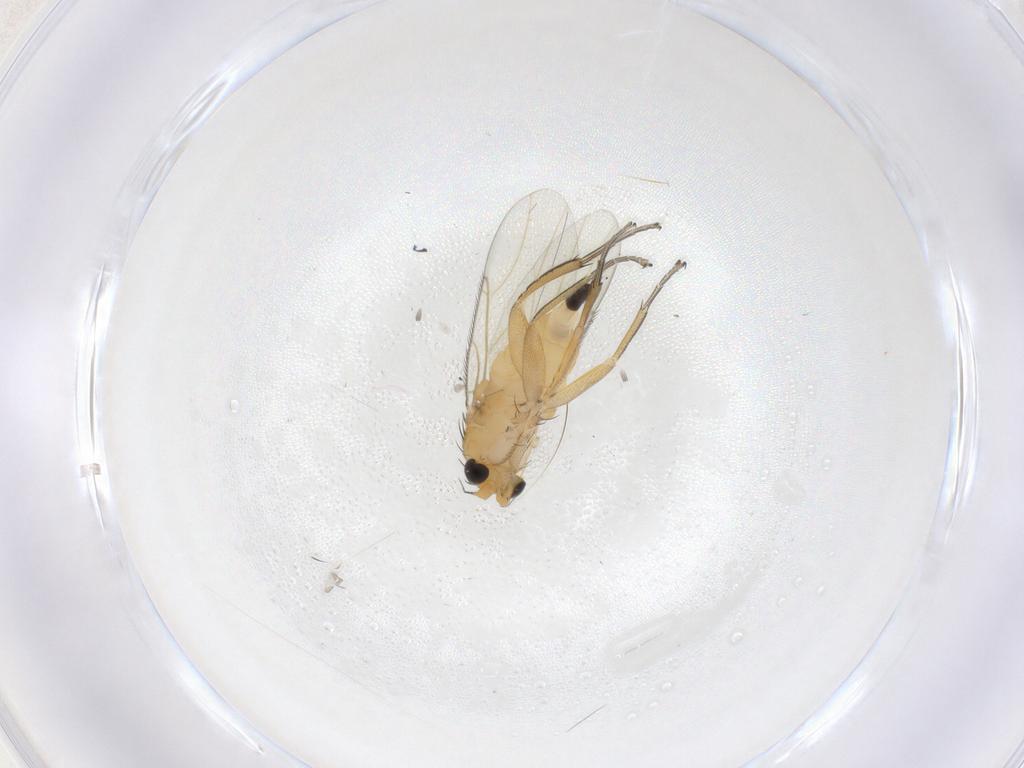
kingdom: Animalia
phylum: Arthropoda
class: Insecta
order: Diptera
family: Phoridae
